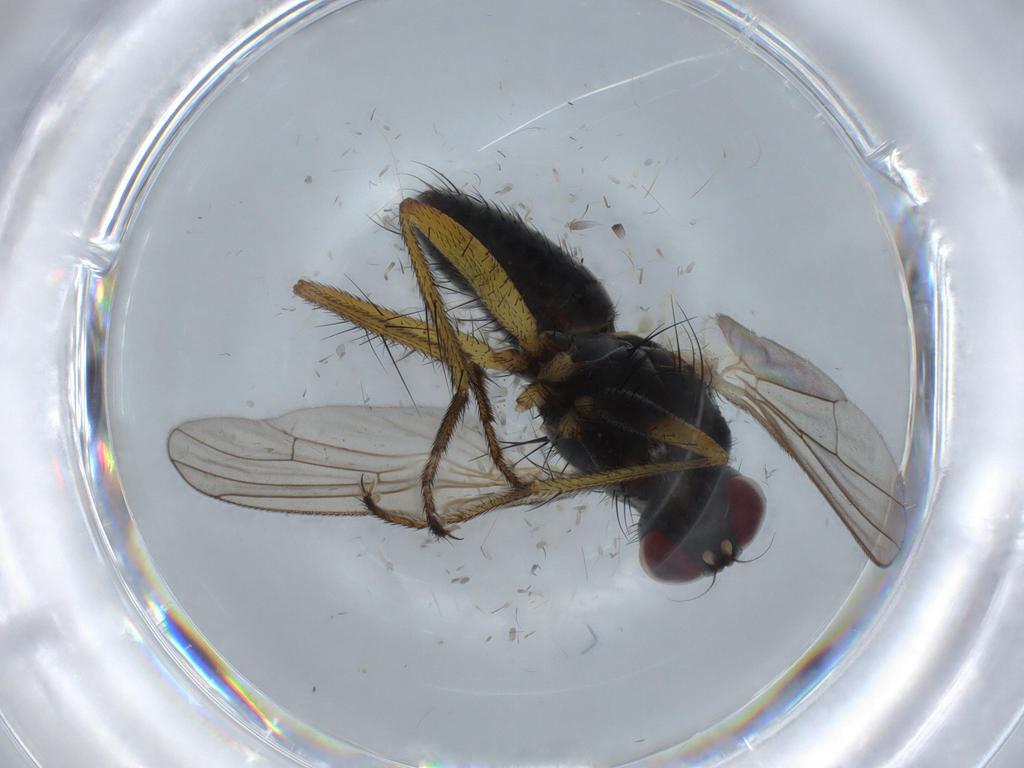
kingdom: Animalia
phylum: Arthropoda
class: Insecta
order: Diptera
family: Muscidae
